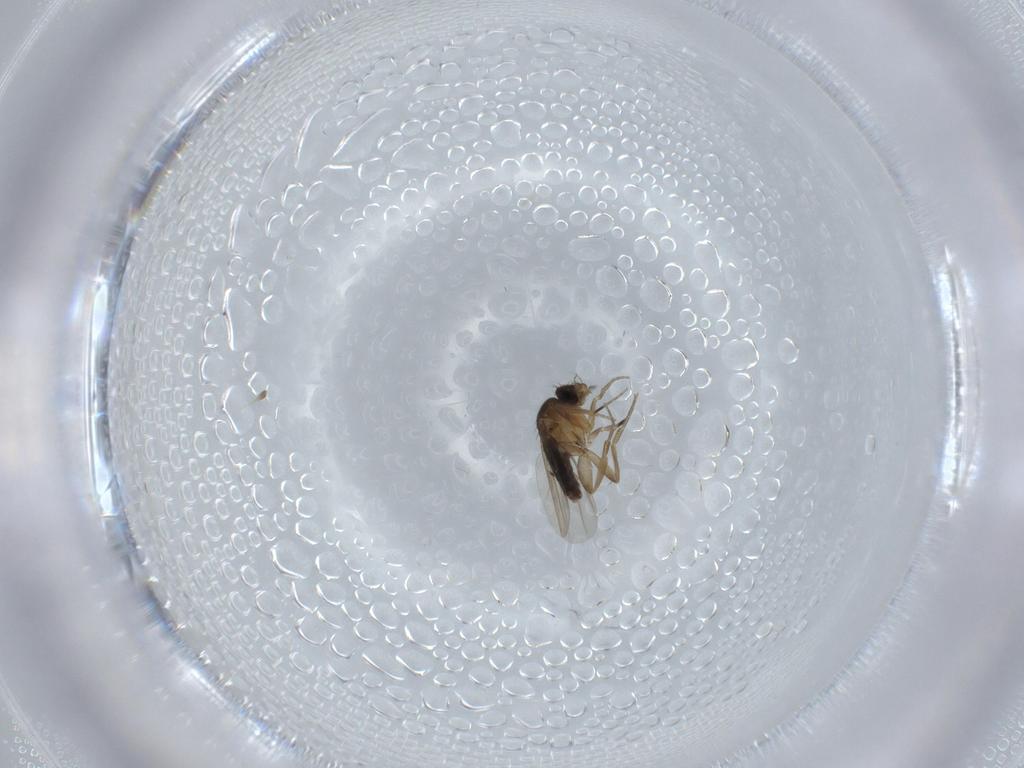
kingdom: Animalia
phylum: Arthropoda
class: Insecta
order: Diptera
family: Phoridae
